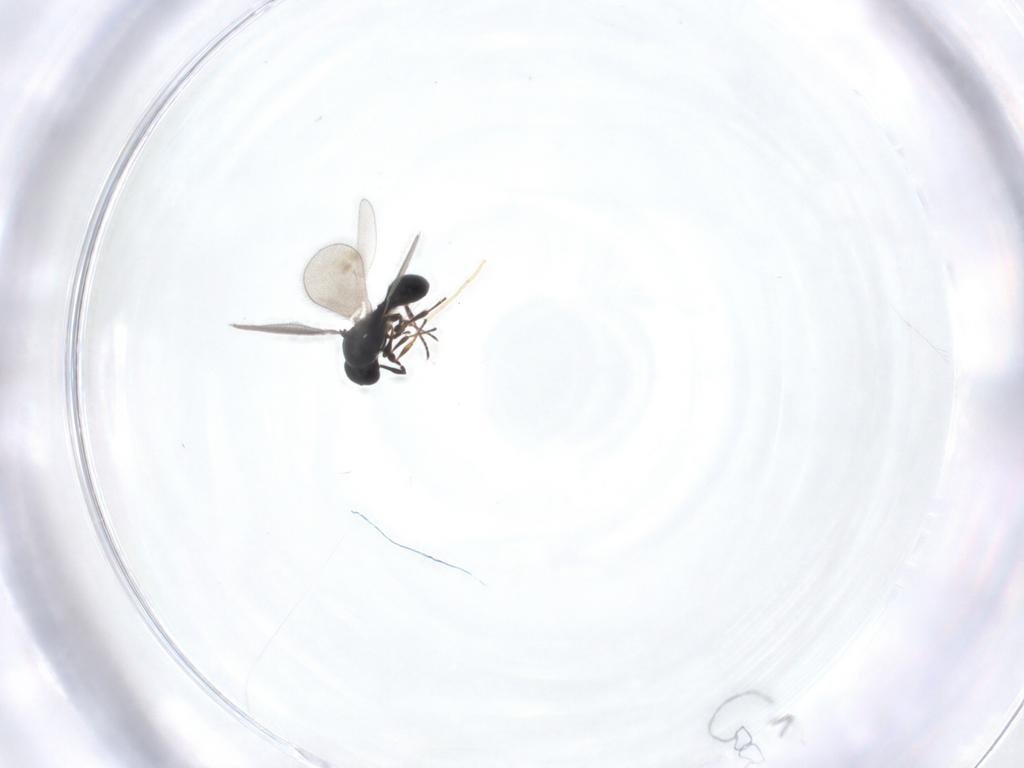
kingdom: Animalia
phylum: Arthropoda
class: Insecta
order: Hymenoptera
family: Platygastridae
